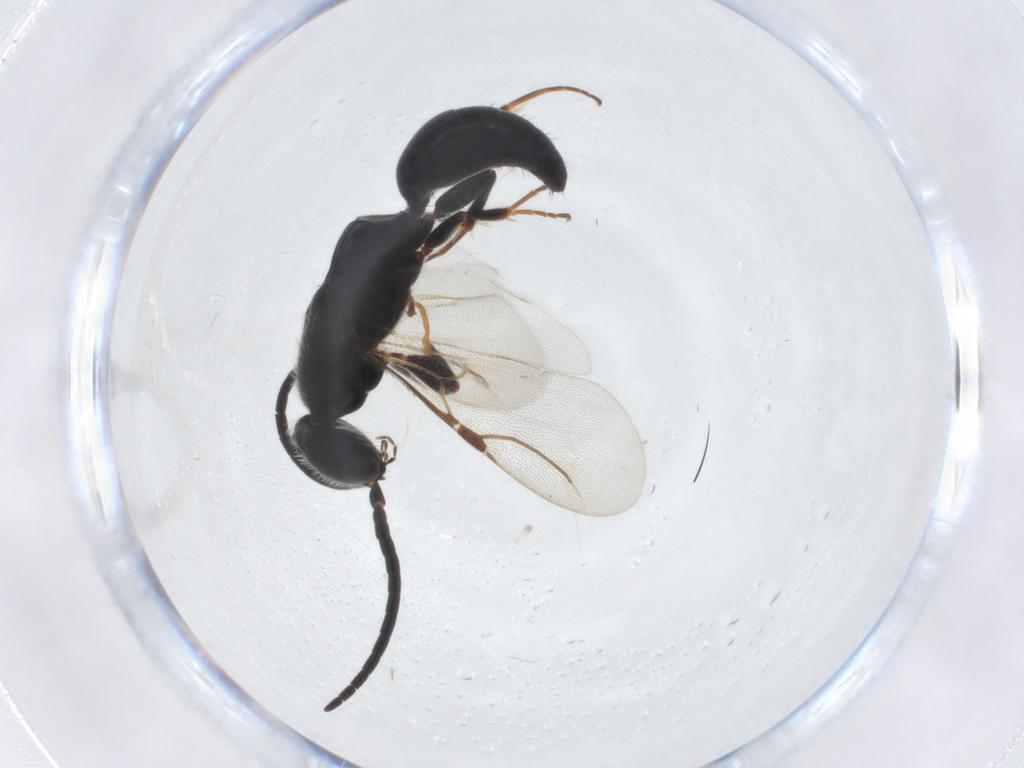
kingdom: Animalia
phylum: Arthropoda
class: Insecta
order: Hymenoptera
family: Bethylidae
